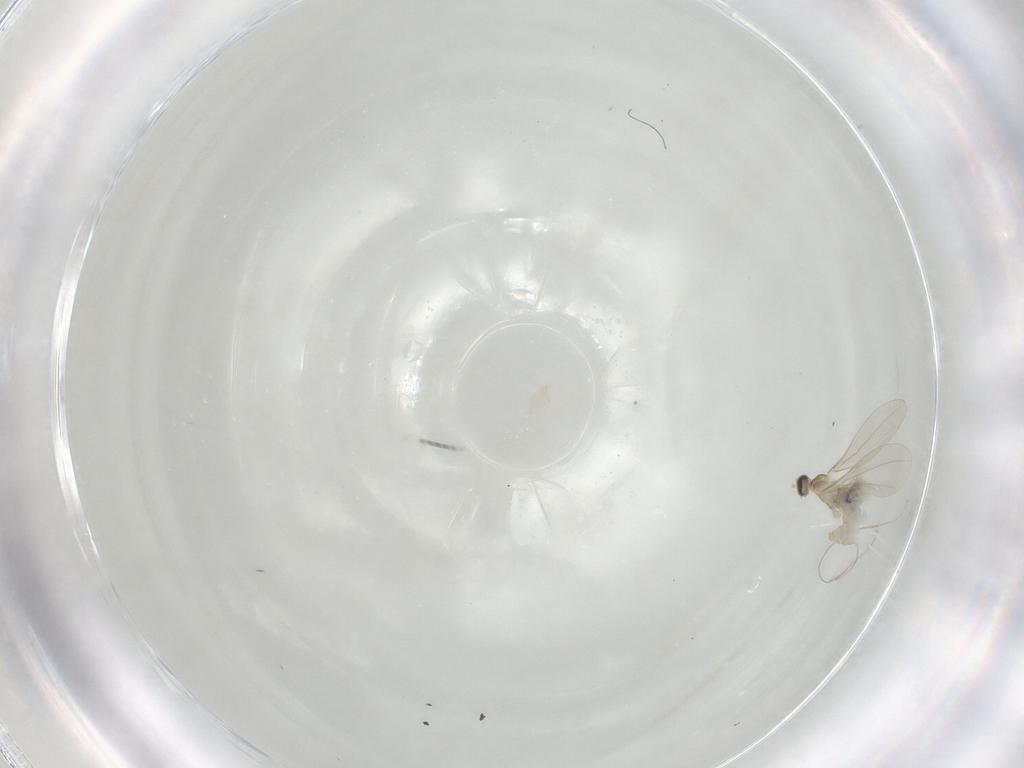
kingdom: Animalia
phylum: Arthropoda
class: Insecta
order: Diptera
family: Cecidomyiidae
